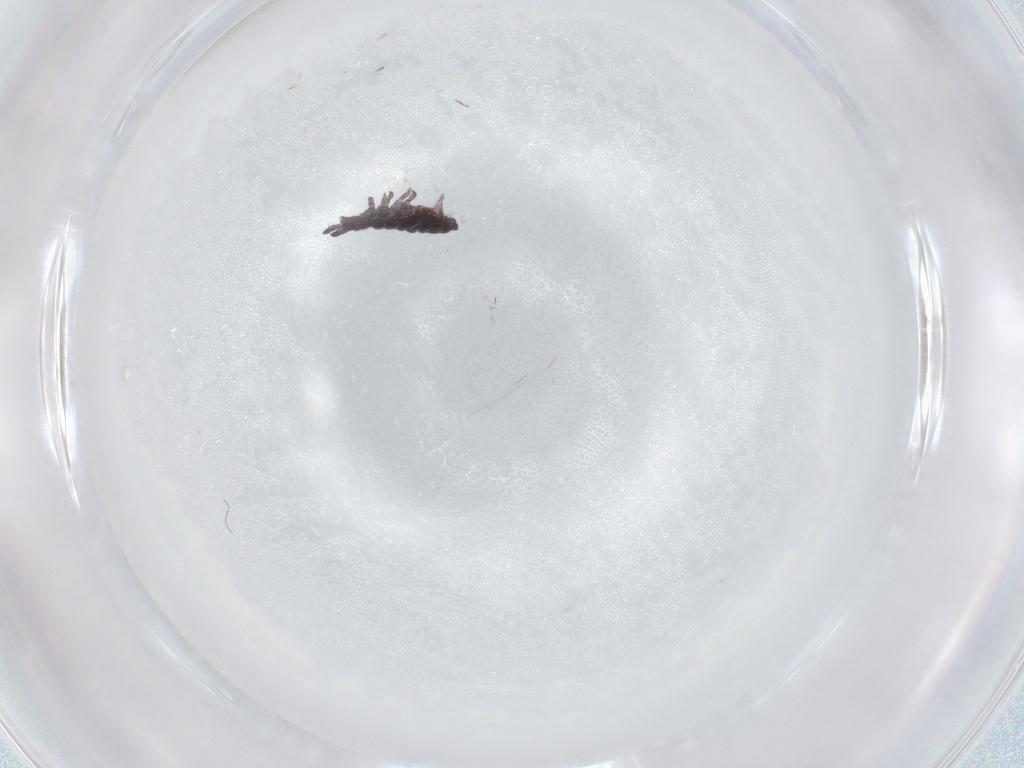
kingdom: Animalia
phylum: Arthropoda
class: Collembola
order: Poduromorpha
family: Hypogastruridae
